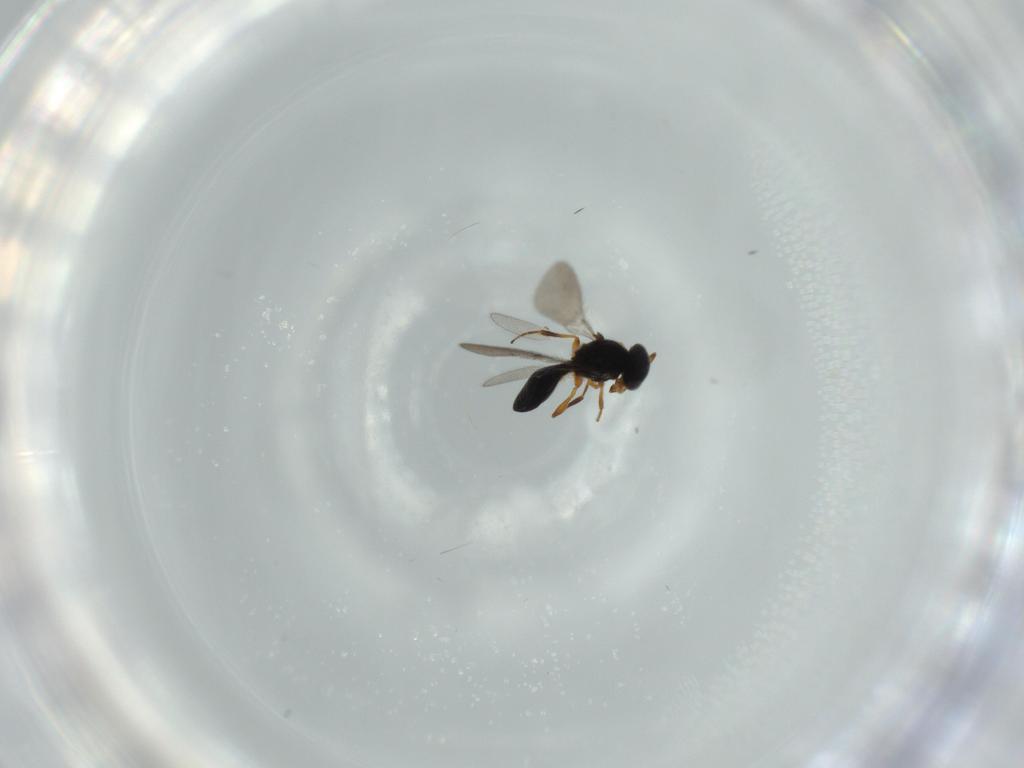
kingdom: Animalia
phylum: Arthropoda
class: Insecta
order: Hymenoptera
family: Platygastridae
